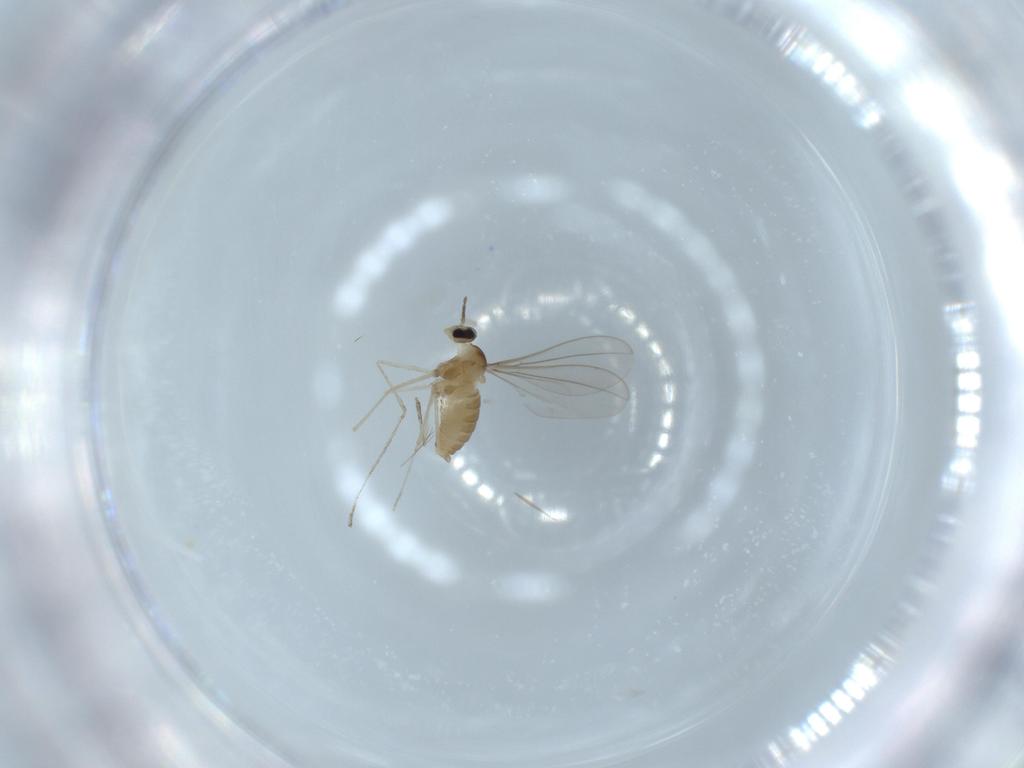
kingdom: Animalia
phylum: Arthropoda
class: Insecta
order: Diptera
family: Cecidomyiidae
